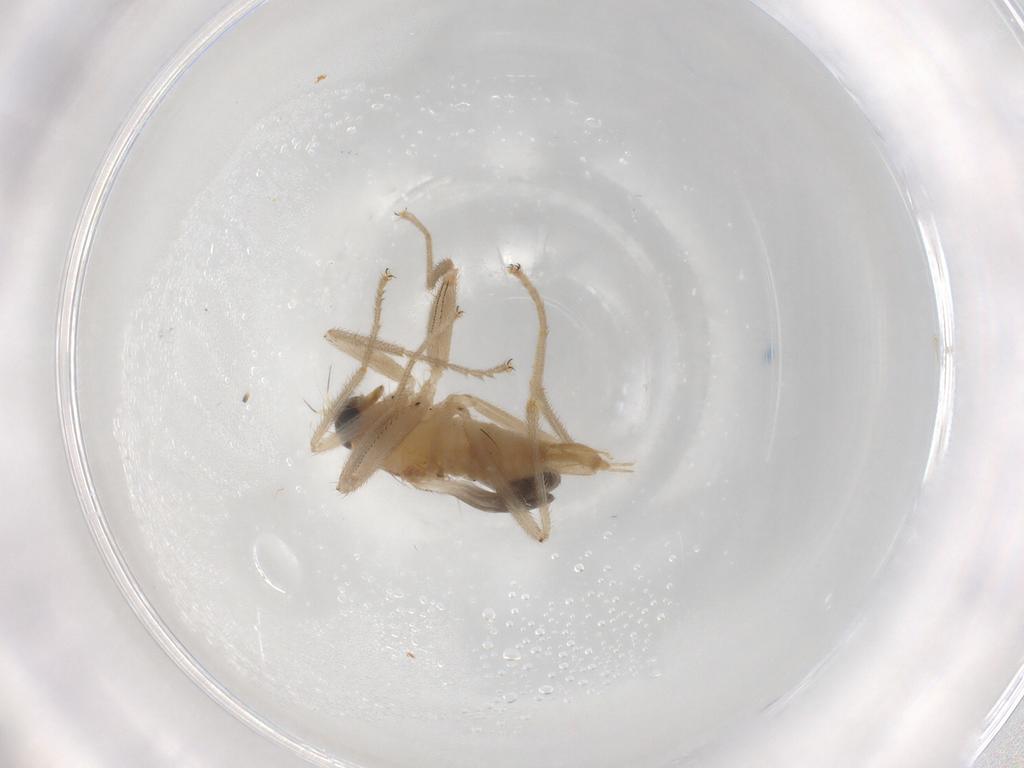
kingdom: Animalia
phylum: Arthropoda
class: Insecta
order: Diptera
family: Hybotidae
